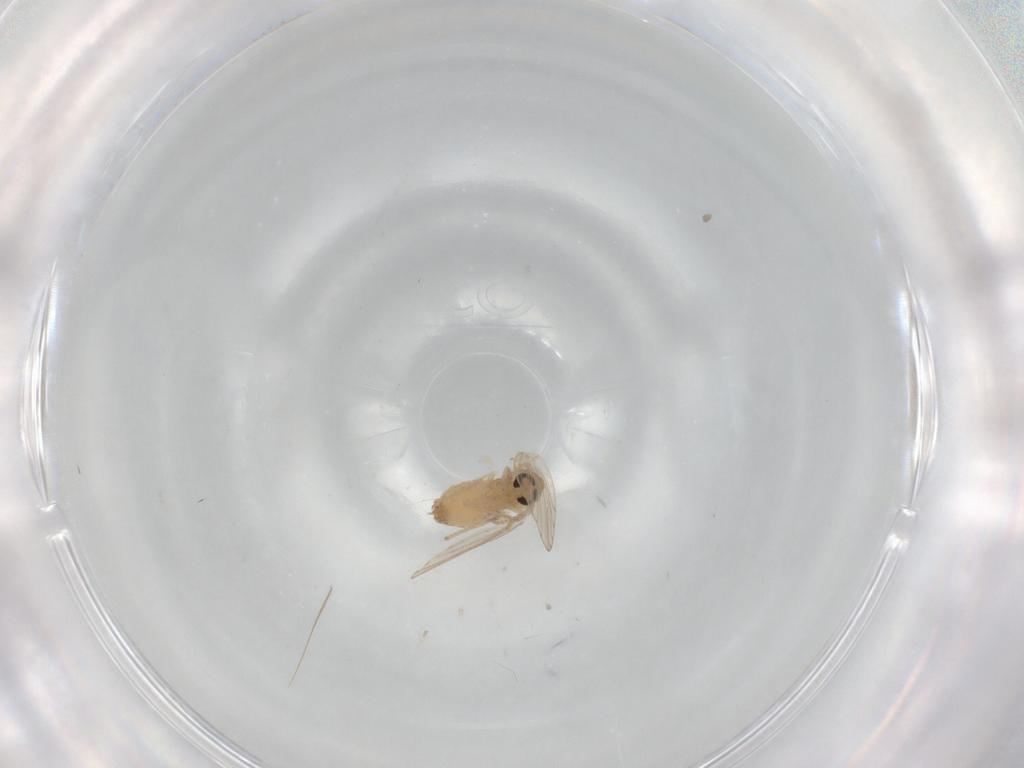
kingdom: Animalia
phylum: Arthropoda
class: Insecta
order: Diptera
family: Psychodidae
